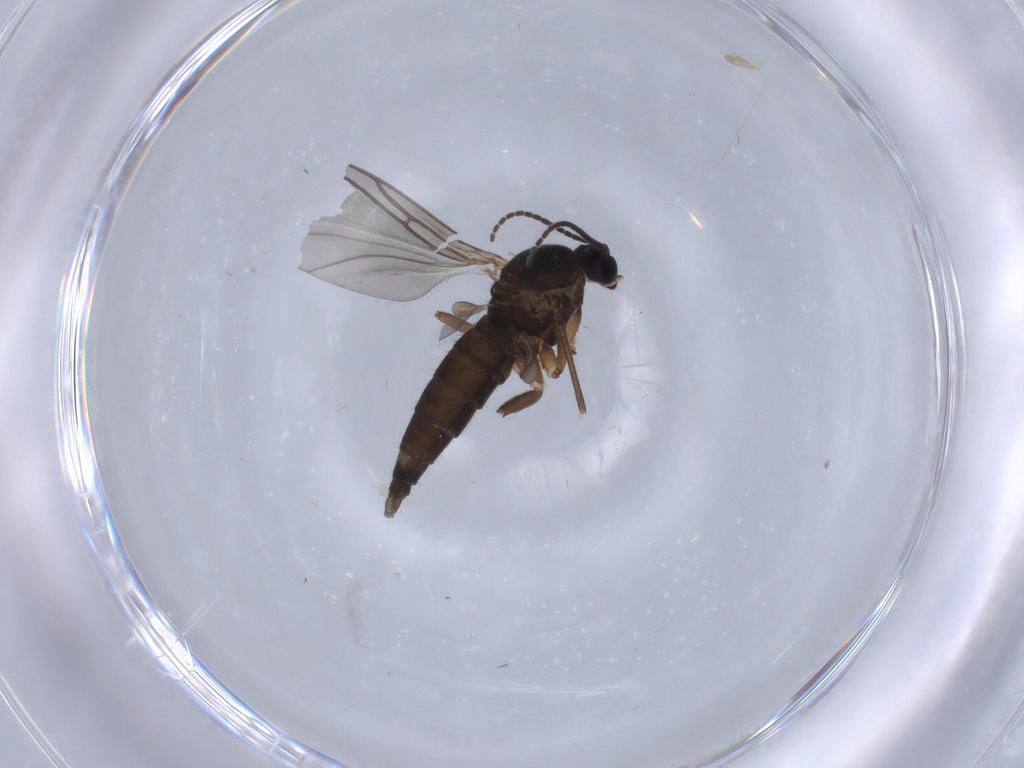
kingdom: Animalia
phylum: Arthropoda
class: Insecta
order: Diptera
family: Sciaridae
